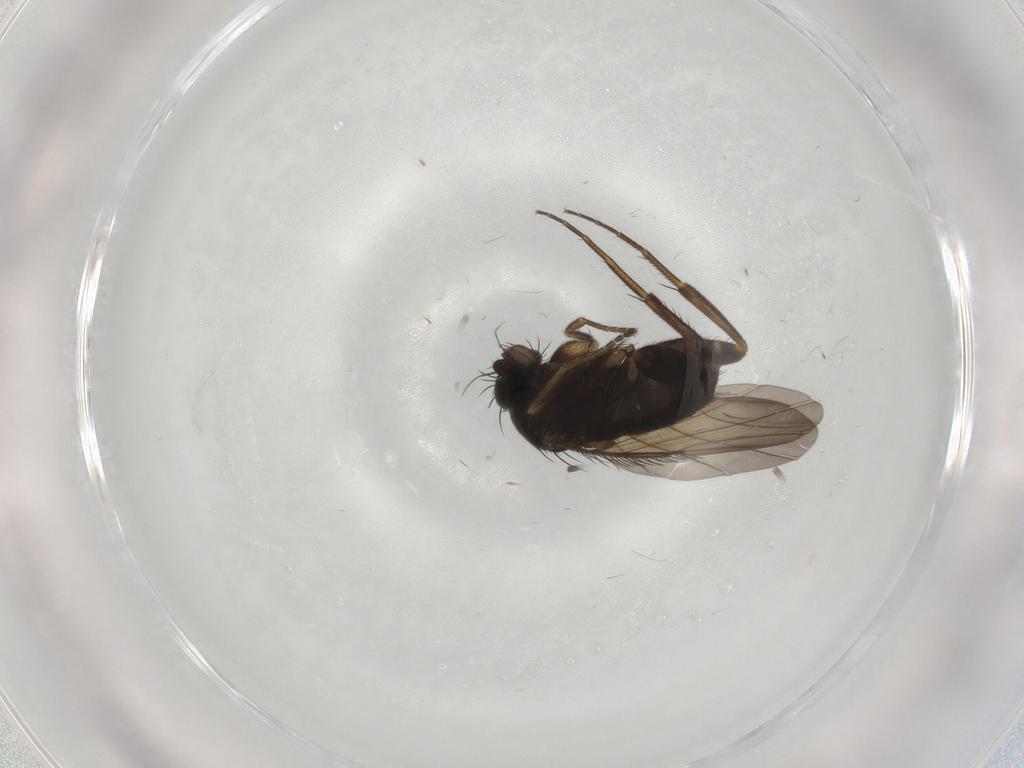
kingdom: Animalia
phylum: Arthropoda
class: Insecta
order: Diptera
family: Phoridae
